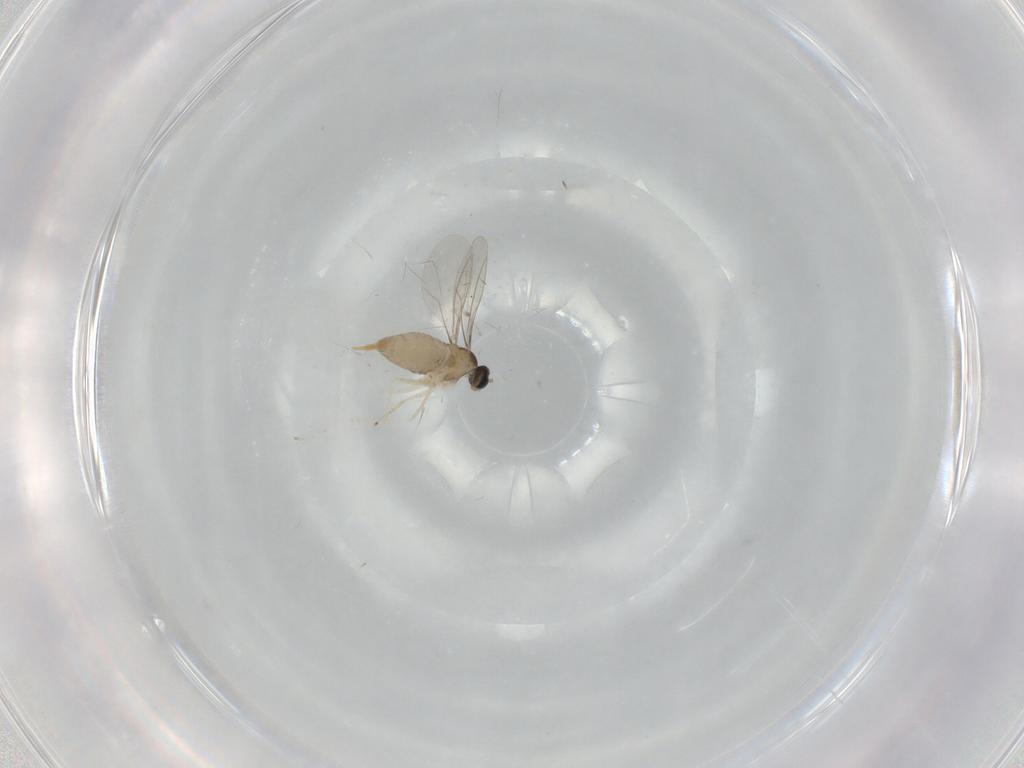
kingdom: Animalia
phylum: Arthropoda
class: Insecta
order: Diptera
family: Cecidomyiidae
